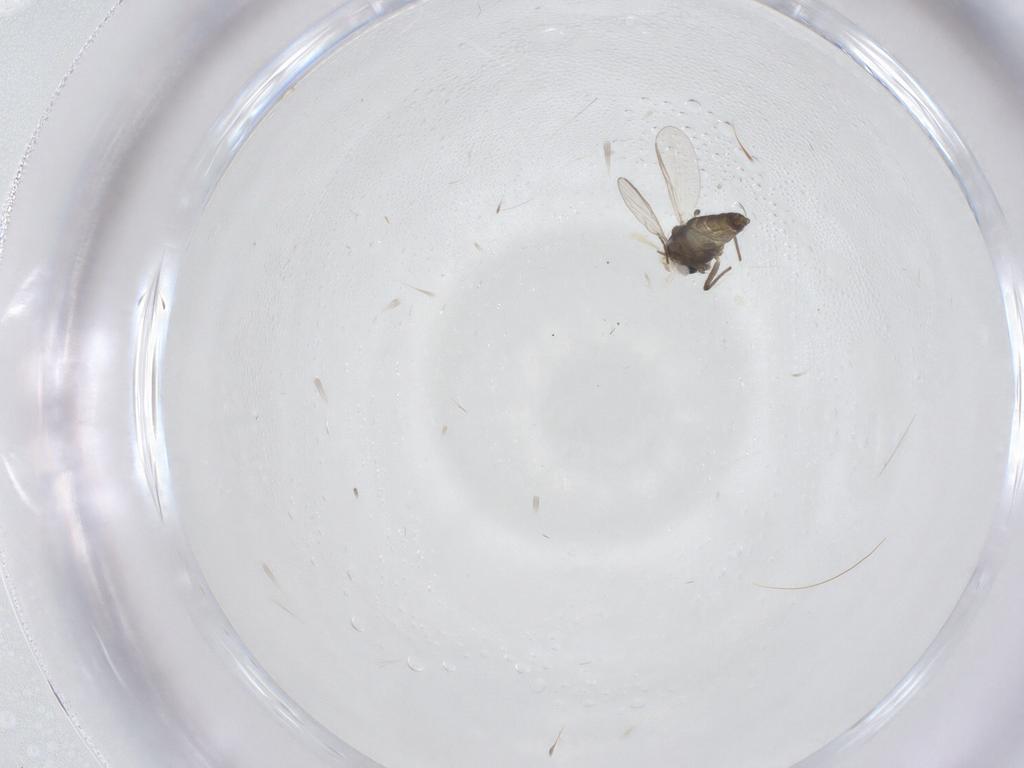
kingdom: Animalia
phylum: Arthropoda
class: Insecta
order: Diptera
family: Chironomidae
